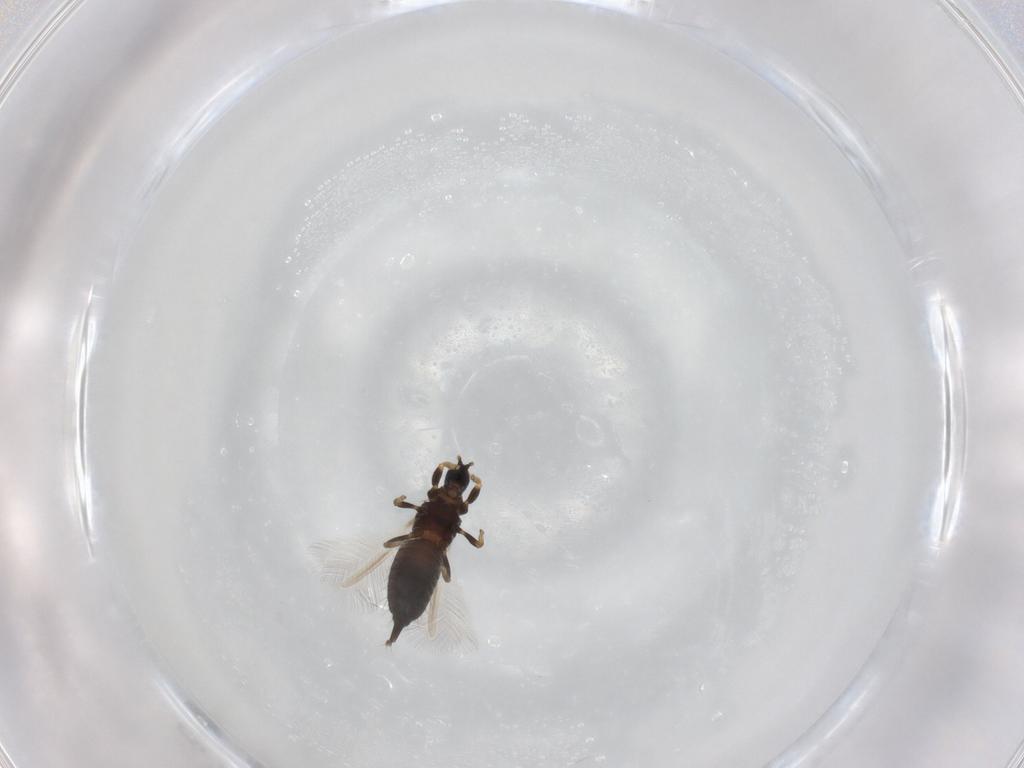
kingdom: Animalia
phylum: Arthropoda
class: Insecta
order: Thysanoptera
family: Phlaeothripidae
